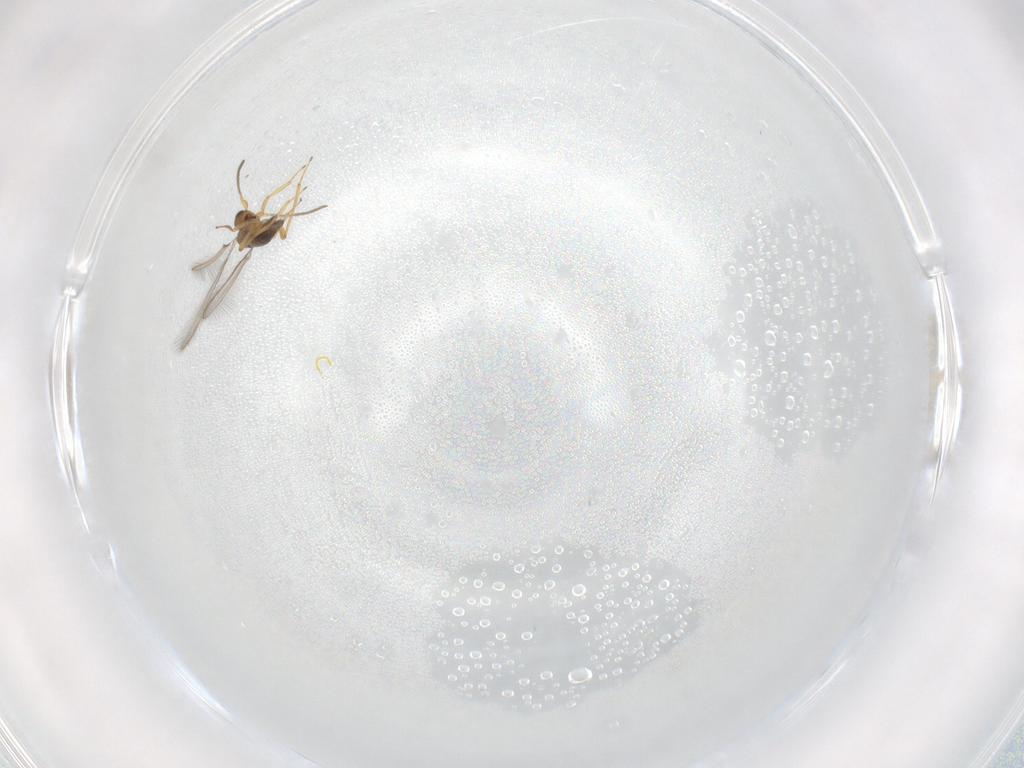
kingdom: Animalia
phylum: Arthropoda
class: Insecta
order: Hymenoptera
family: Mymaridae
